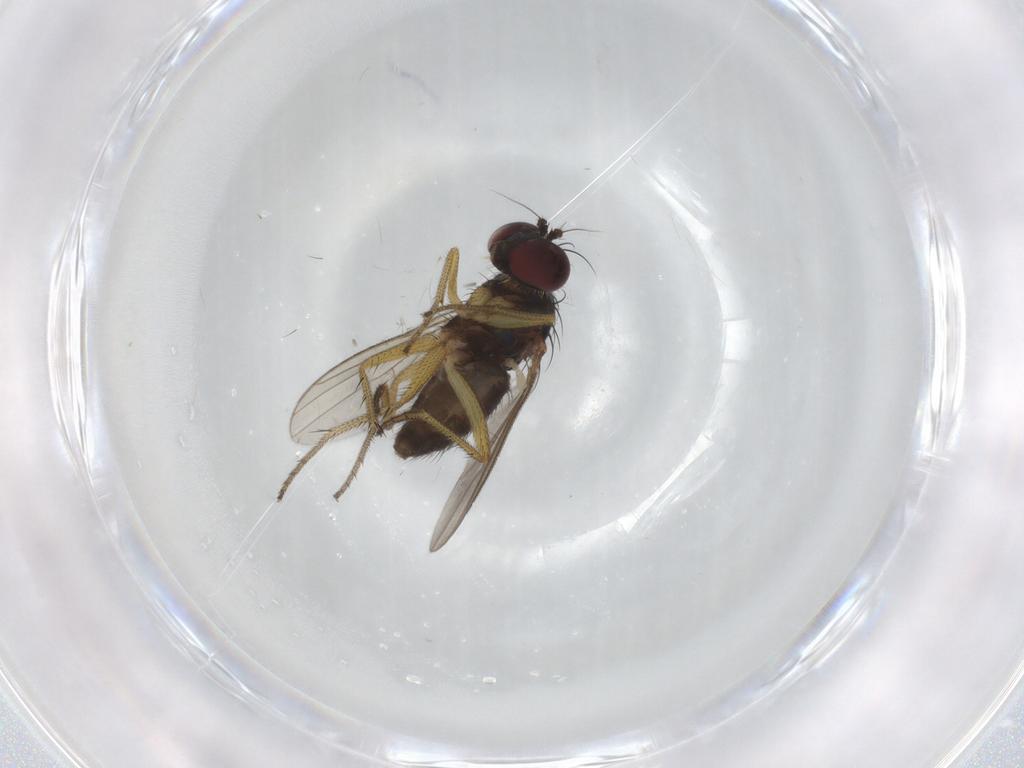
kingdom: Animalia
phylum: Arthropoda
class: Insecta
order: Diptera
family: Dolichopodidae
